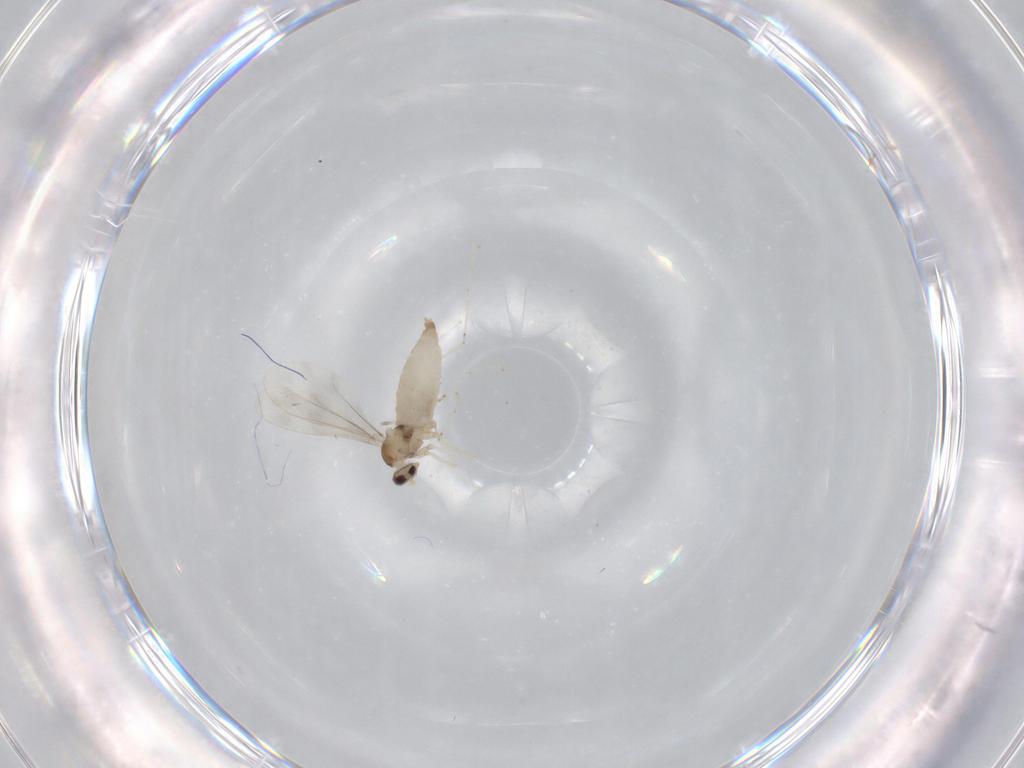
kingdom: Animalia
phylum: Arthropoda
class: Insecta
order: Diptera
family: Cecidomyiidae
